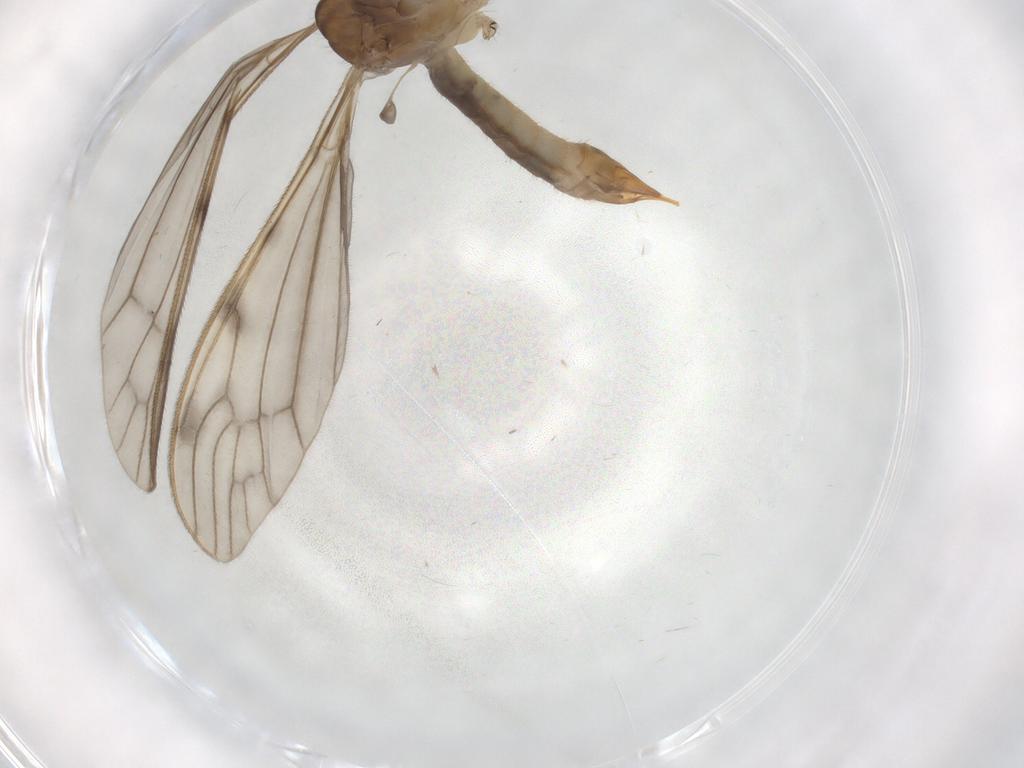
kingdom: Animalia
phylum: Arthropoda
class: Insecta
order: Diptera
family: Chironomidae
